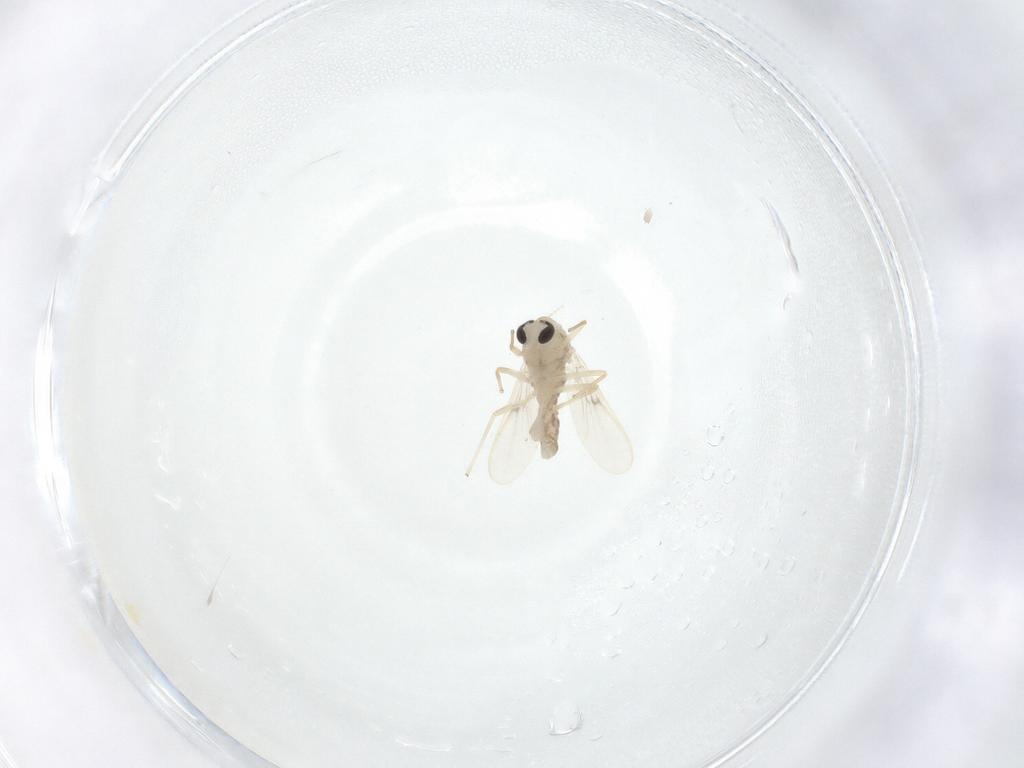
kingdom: Animalia
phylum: Arthropoda
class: Insecta
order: Diptera
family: Chironomidae
